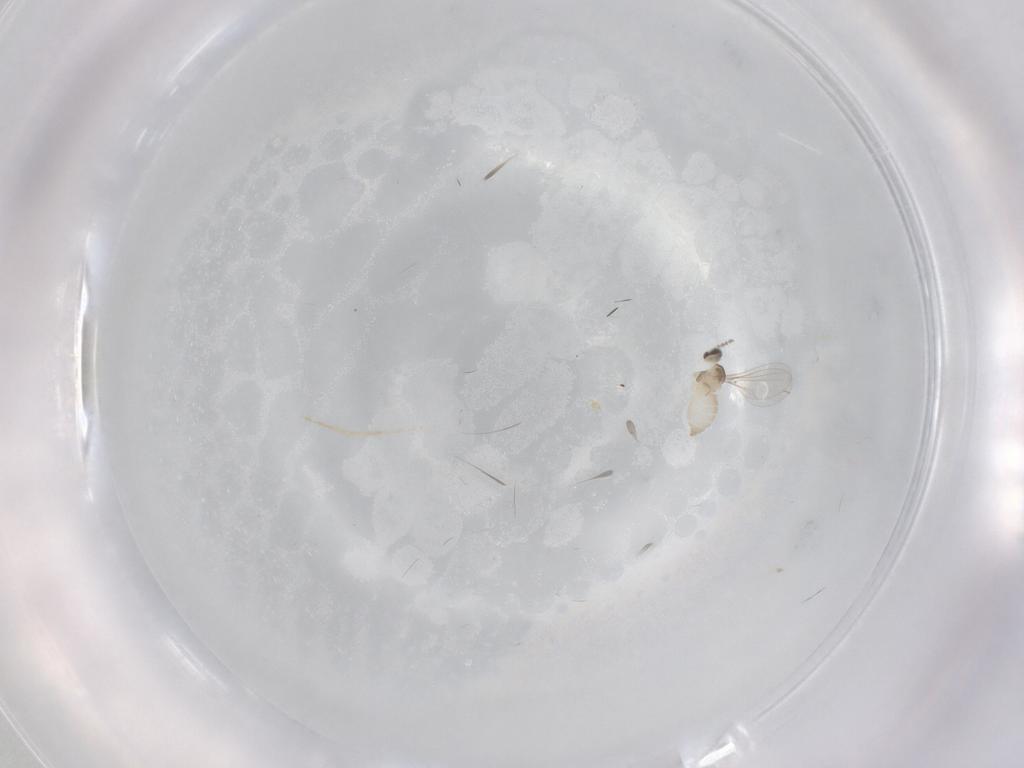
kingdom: Animalia
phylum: Arthropoda
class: Insecta
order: Diptera
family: Cecidomyiidae
